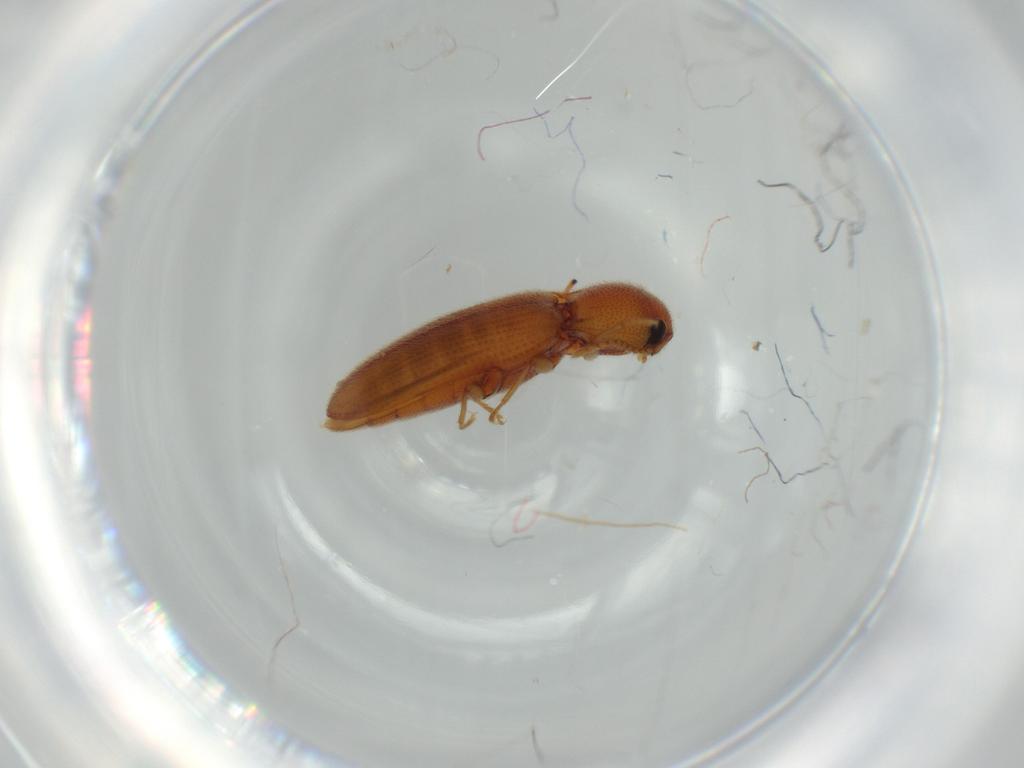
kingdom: Animalia
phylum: Arthropoda
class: Insecta
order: Coleoptera
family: Elateridae
